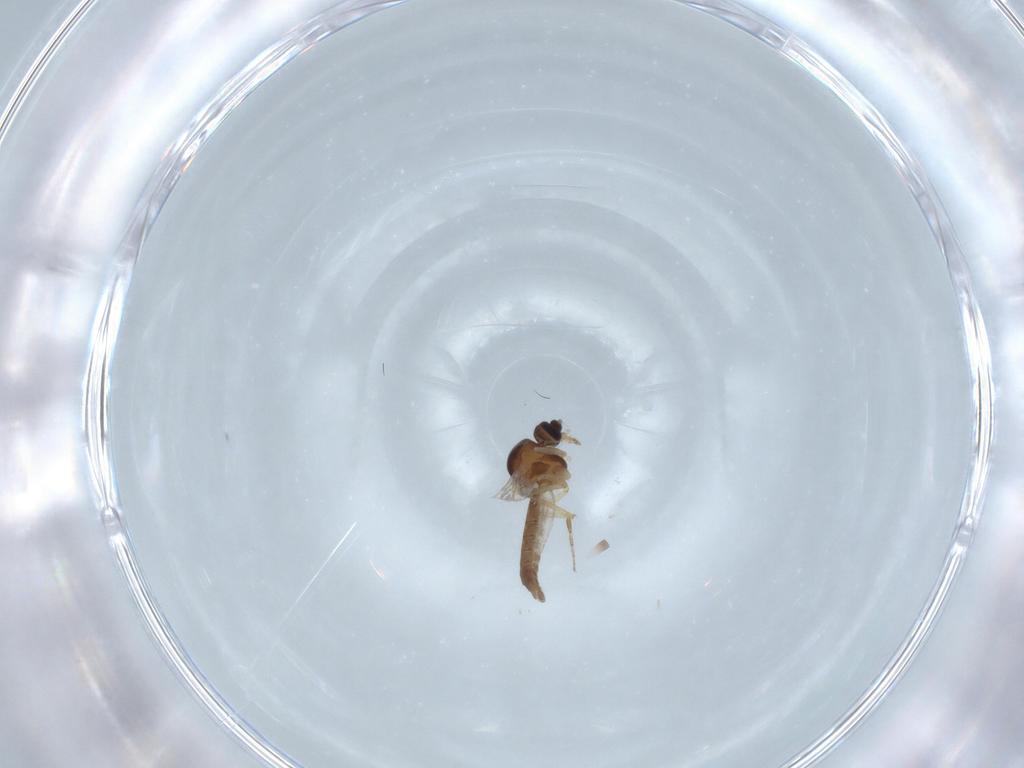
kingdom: Animalia
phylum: Arthropoda
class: Insecta
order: Diptera
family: Ceratopogonidae
